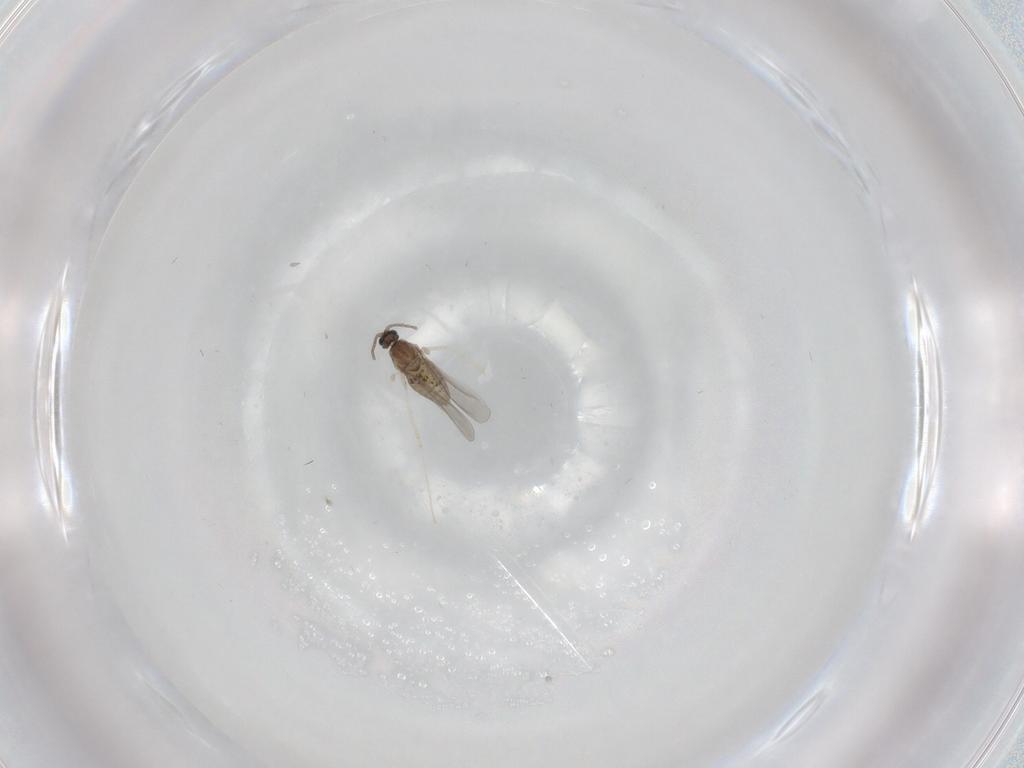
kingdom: Animalia
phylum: Arthropoda
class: Insecta
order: Diptera
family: Cecidomyiidae
